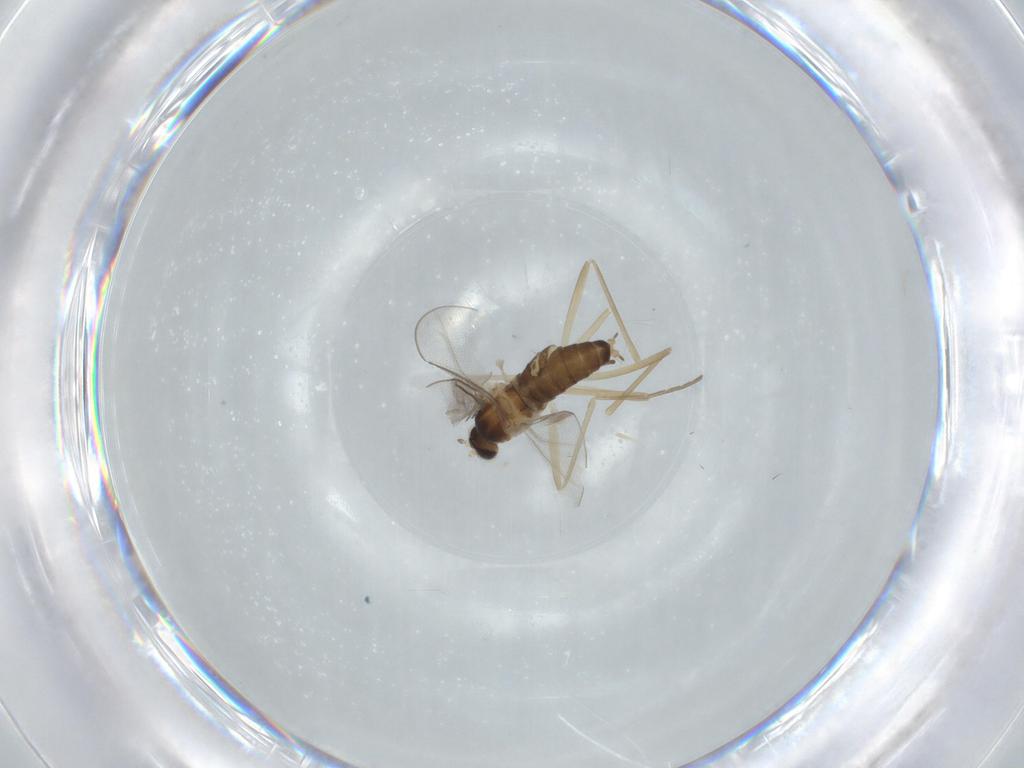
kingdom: Animalia
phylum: Arthropoda
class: Insecta
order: Diptera
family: Cecidomyiidae
